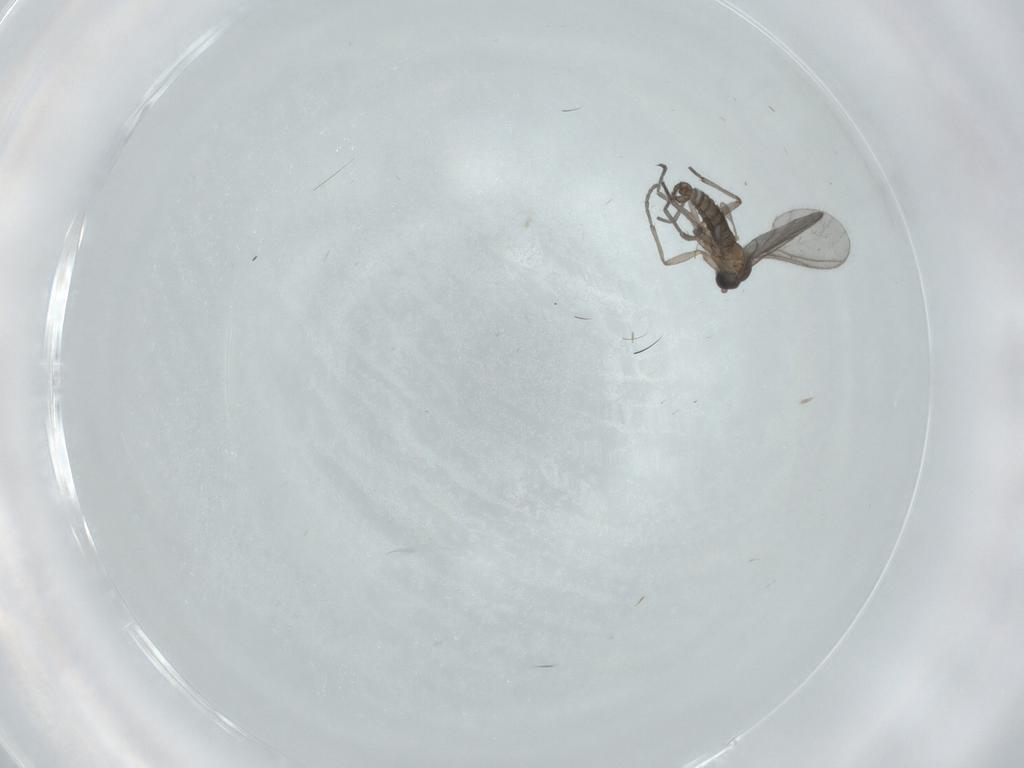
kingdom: Animalia
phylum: Arthropoda
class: Insecta
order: Diptera
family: Sciaridae
